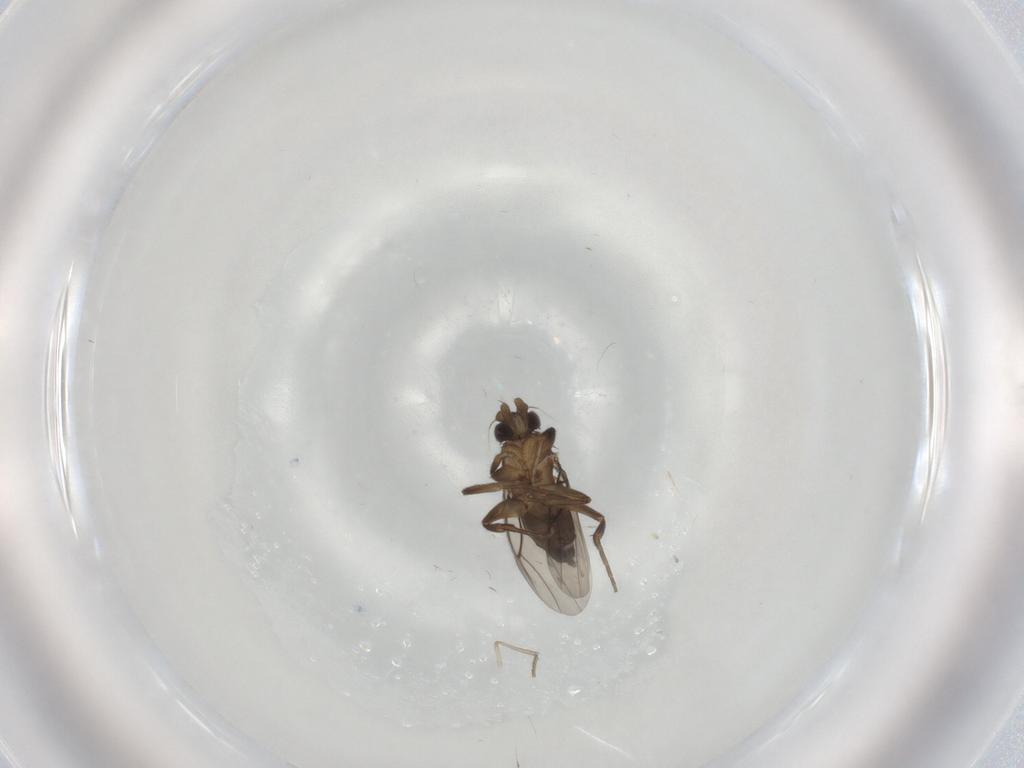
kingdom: Animalia
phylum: Arthropoda
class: Insecta
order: Diptera
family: Phoridae
